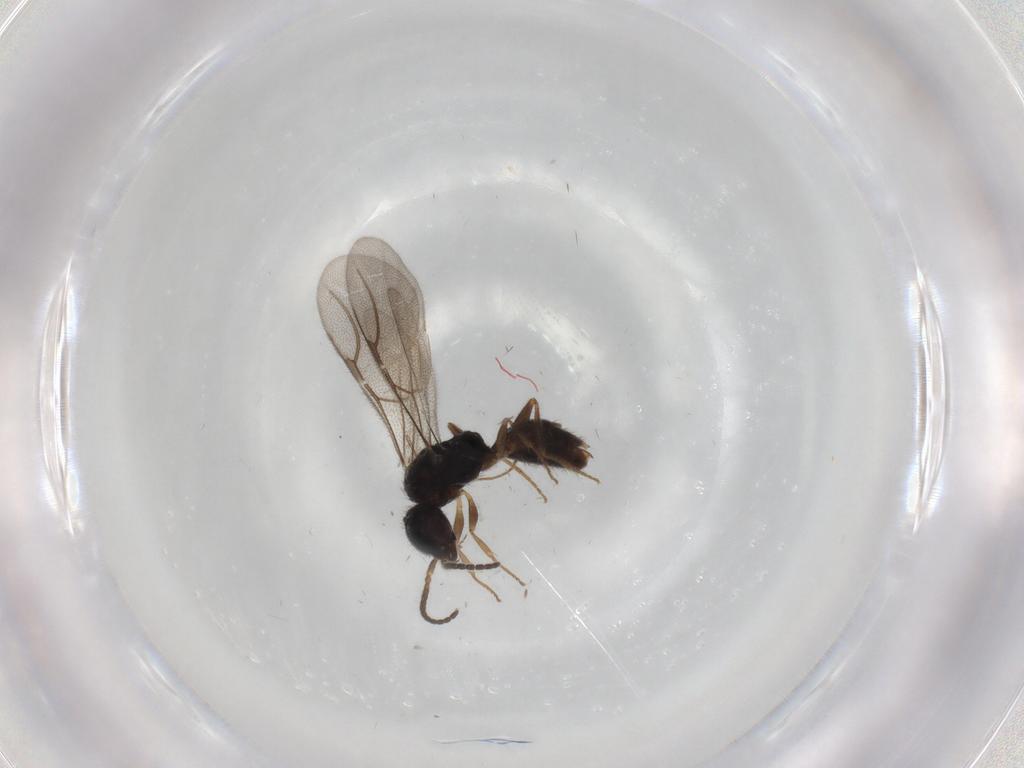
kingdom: Animalia
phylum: Arthropoda
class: Insecta
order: Hymenoptera
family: Bethylidae
